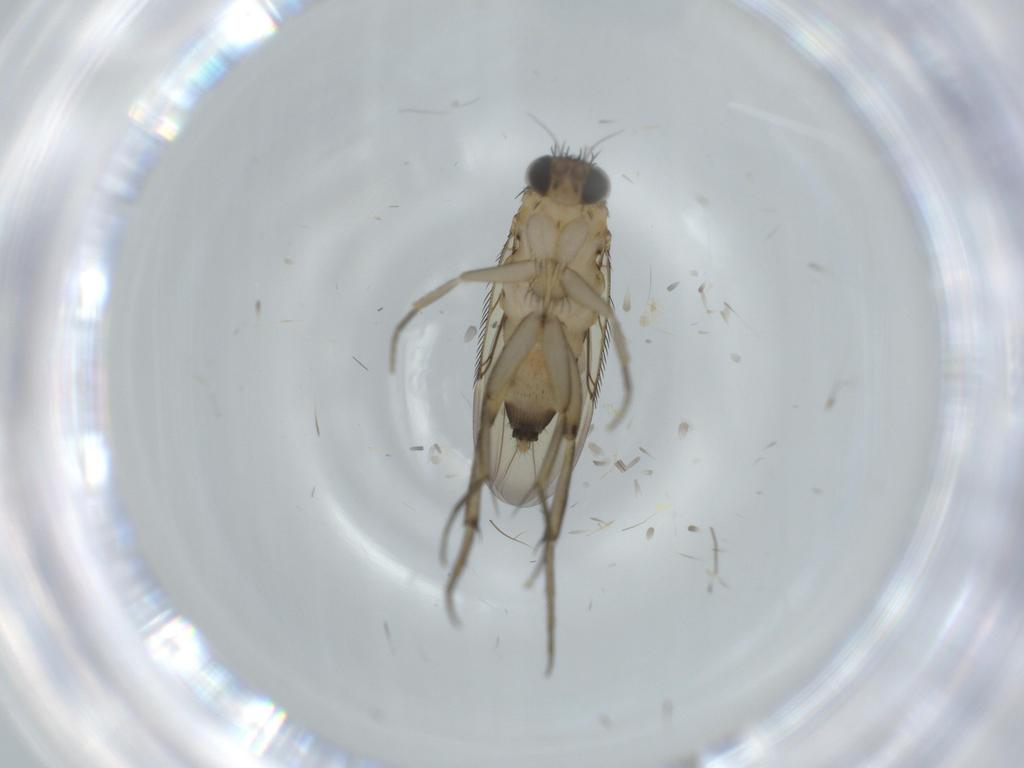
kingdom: Animalia
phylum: Arthropoda
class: Insecta
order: Diptera
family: Phoridae
